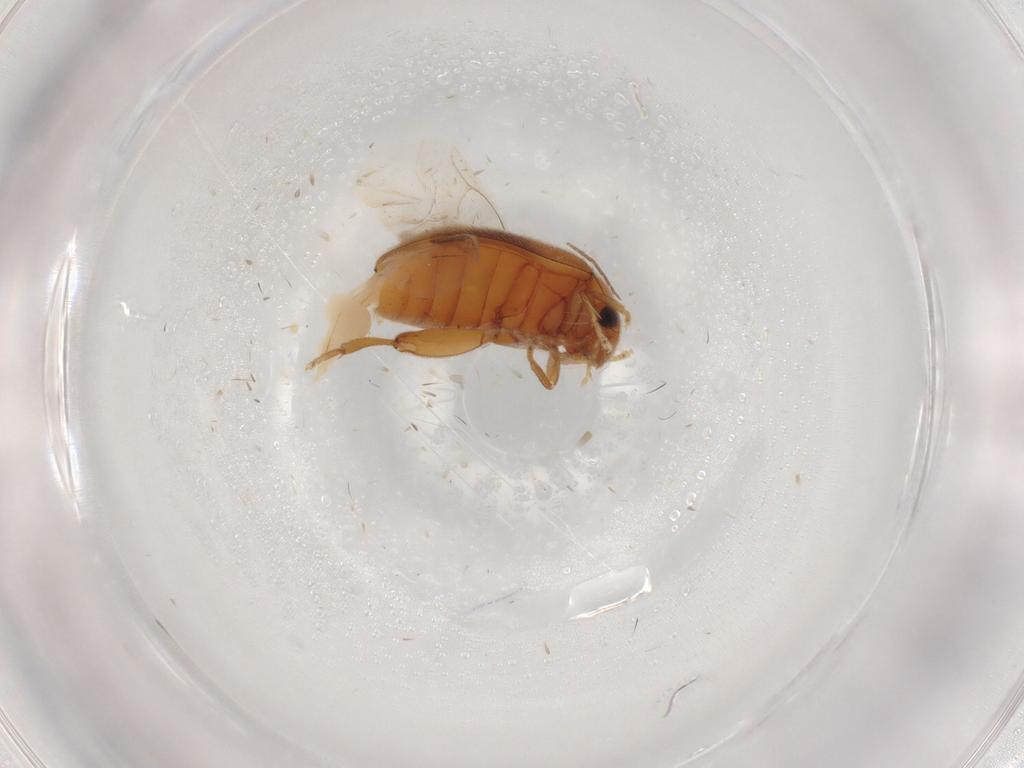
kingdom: Animalia
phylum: Arthropoda
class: Insecta
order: Coleoptera
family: Scirtidae
